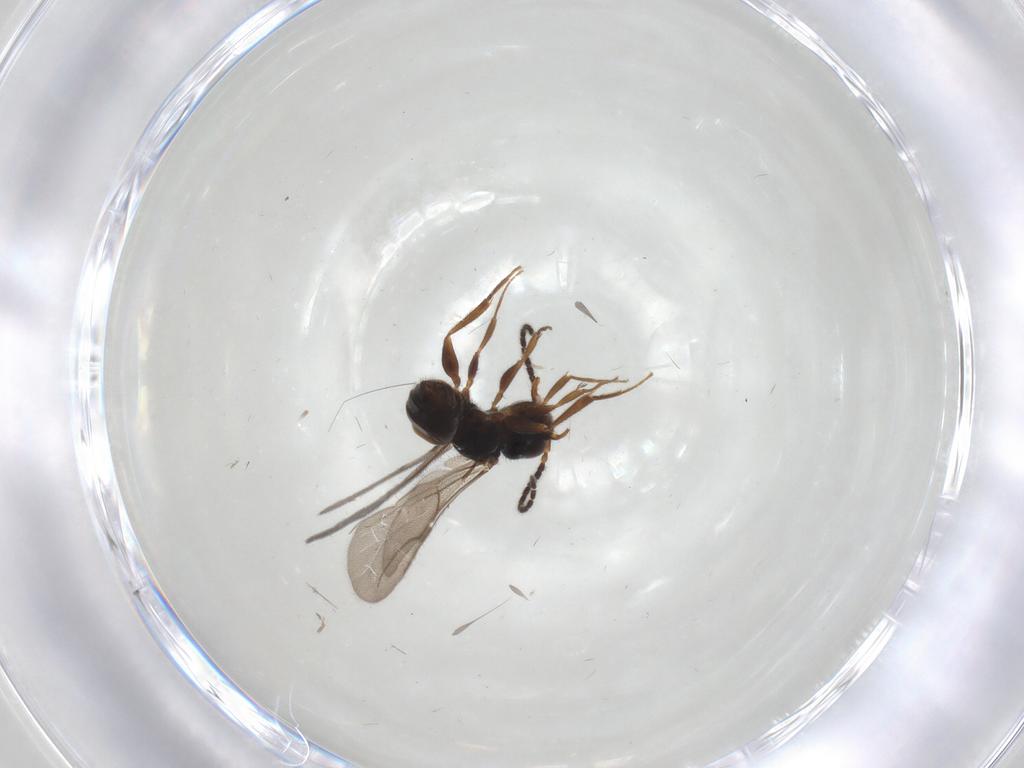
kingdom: Animalia
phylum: Arthropoda
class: Insecta
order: Hymenoptera
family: Bethylidae
